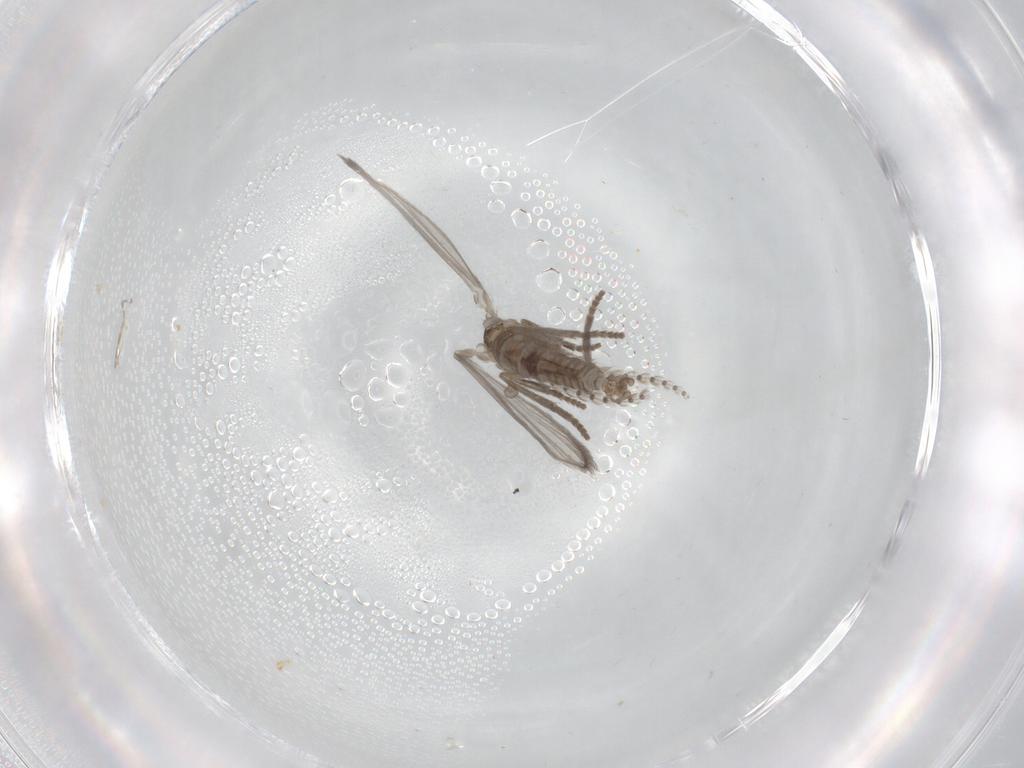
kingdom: Animalia
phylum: Arthropoda
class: Insecta
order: Diptera
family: Psychodidae
